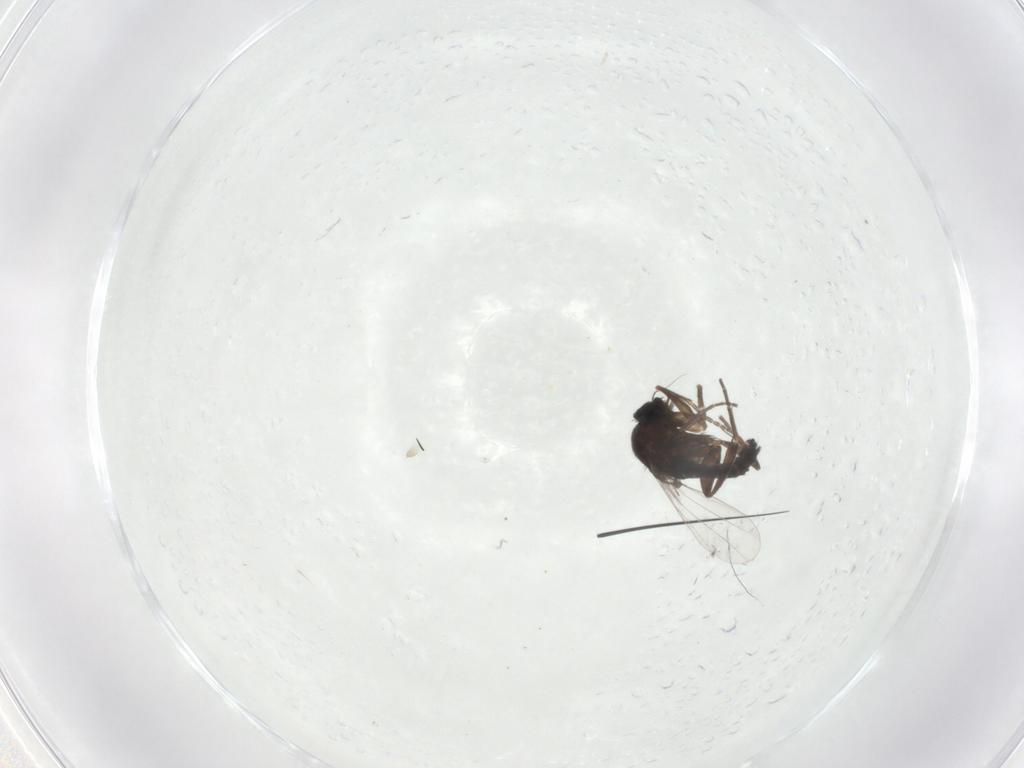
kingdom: Animalia
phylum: Arthropoda
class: Insecta
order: Diptera
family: Phoridae
